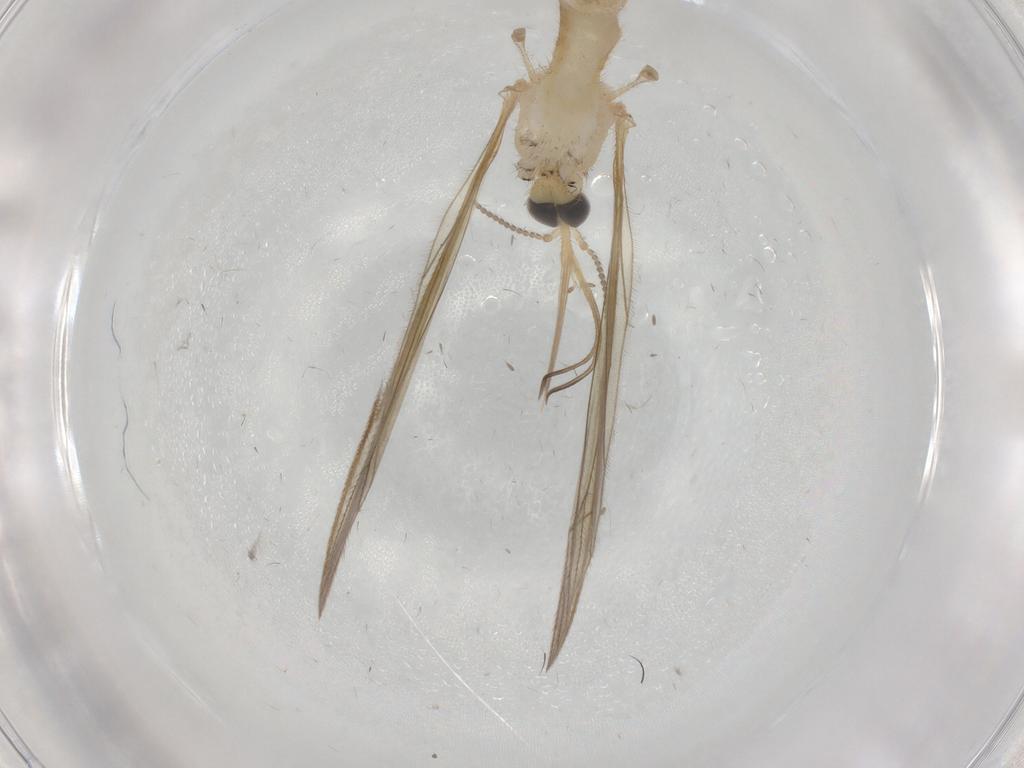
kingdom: Animalia
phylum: Arthropoda
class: Insecta
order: Diptera
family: Limoniidae
